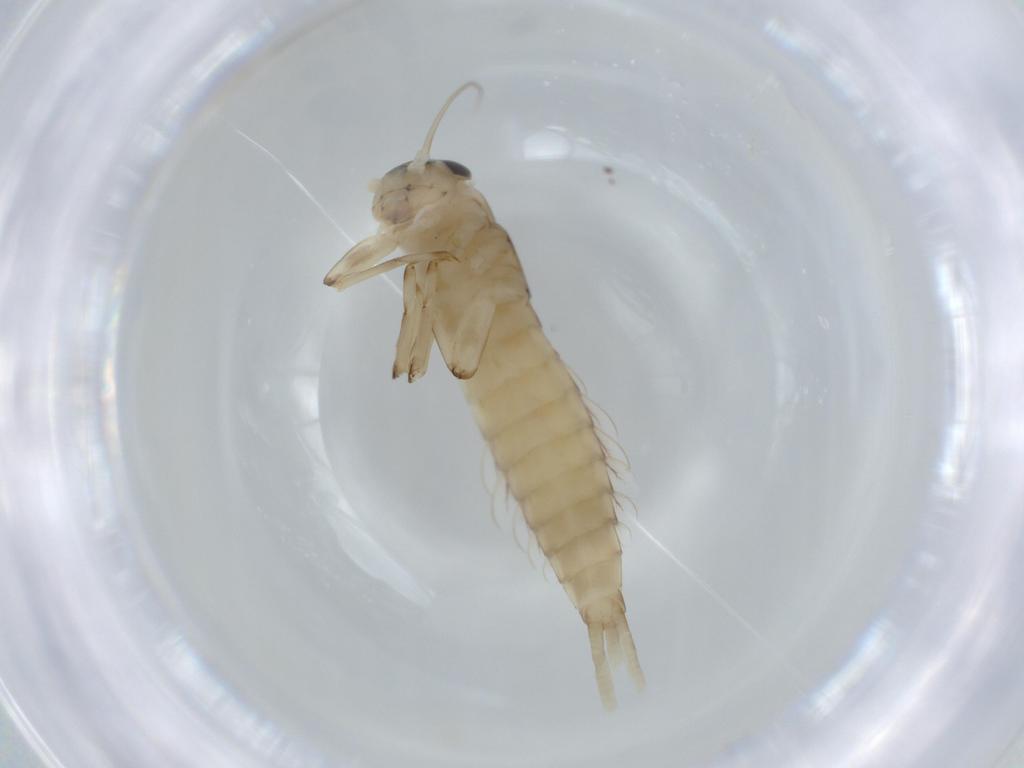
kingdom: Animalia
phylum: Arthropoda
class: Insecta
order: Ephemeroptera
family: Baetidae
